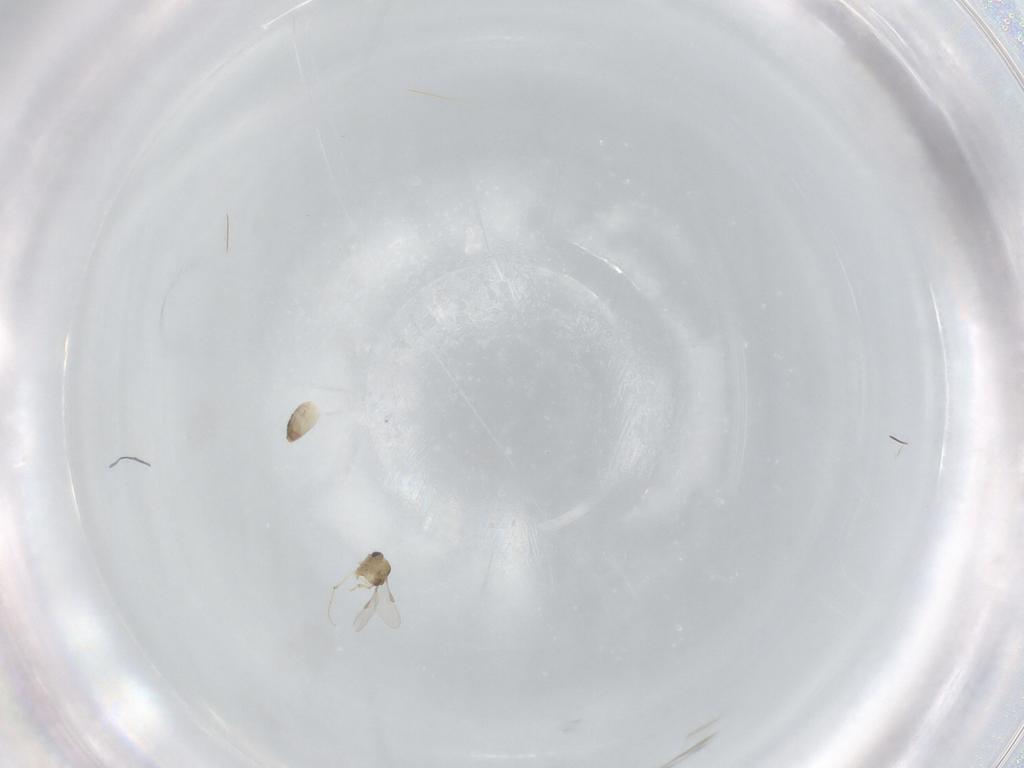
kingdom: Animalia
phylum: Arthropoda
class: Insecta
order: Diptera
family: Chironomidae
